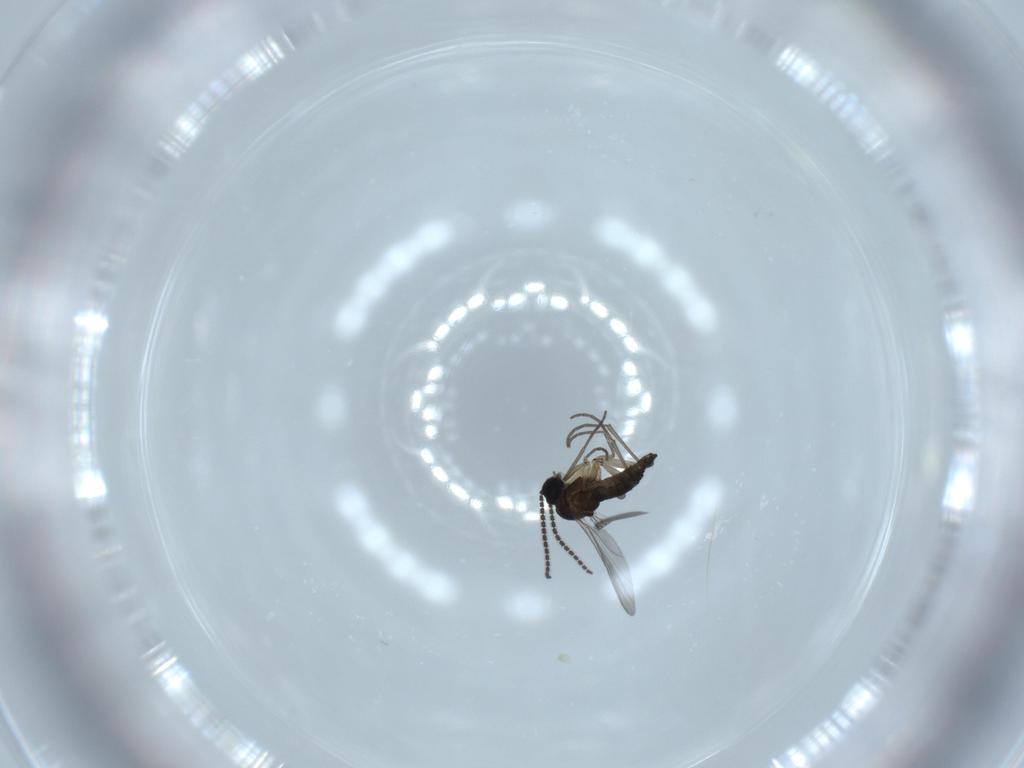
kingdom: Animalia
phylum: Arthropoda
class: Insecta
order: Diptera
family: Sciaridae
